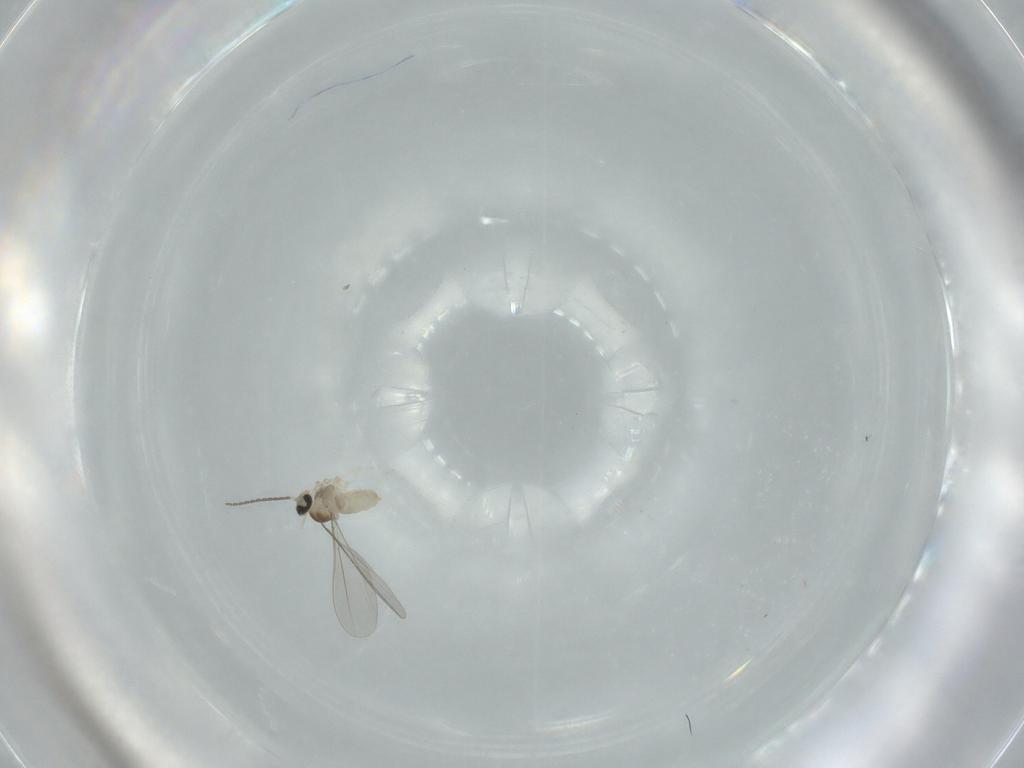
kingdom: Animalia
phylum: Arthropoda
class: Insecta
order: Diptera
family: Cecidomyiidae
